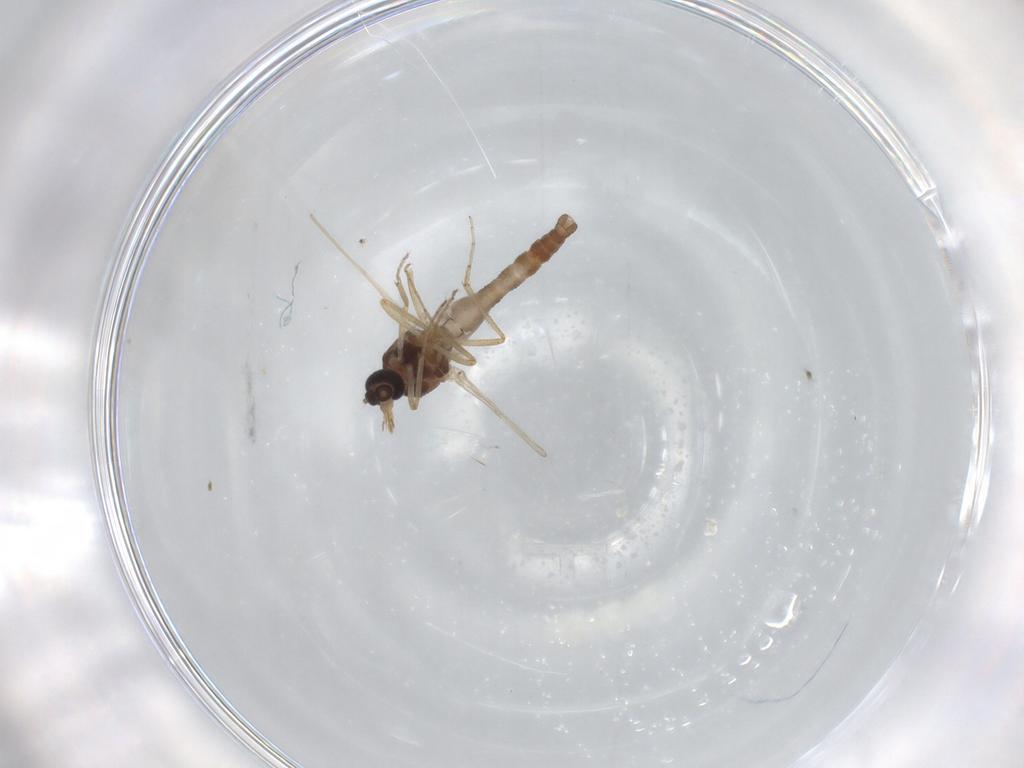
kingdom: Animalia
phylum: Arthropoda
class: Insecta
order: Diptera
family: Ceratopogonidae
